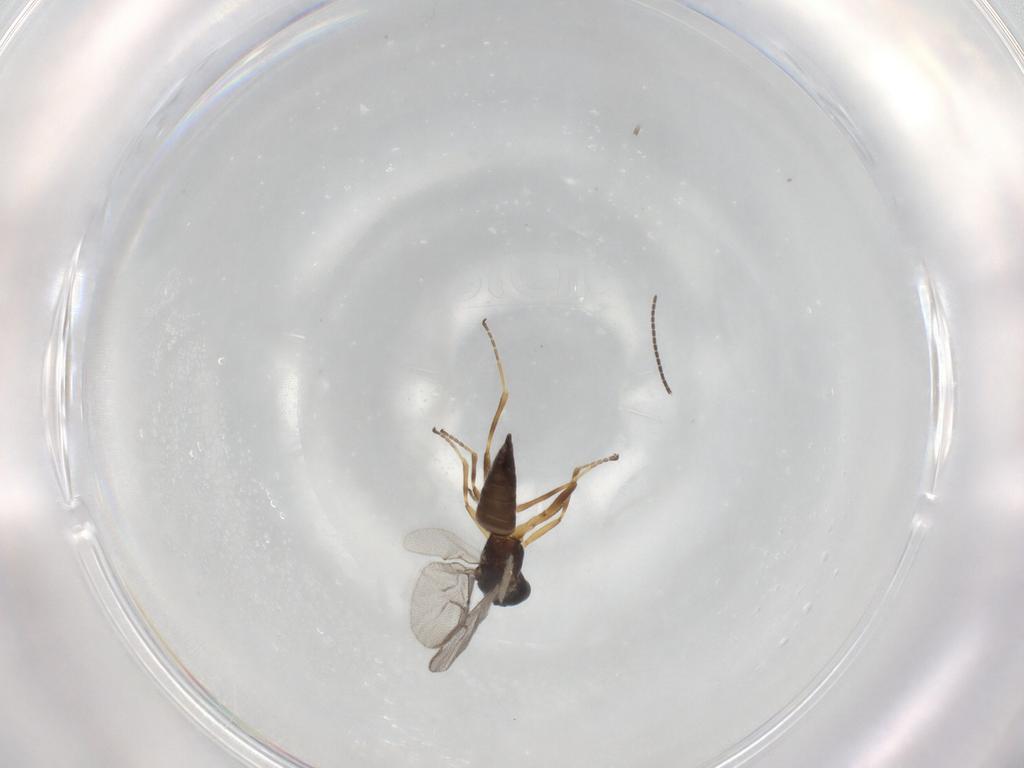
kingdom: Animalia
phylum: Arthropoda
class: Insecta
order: Hymenoptera
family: Braconidae
